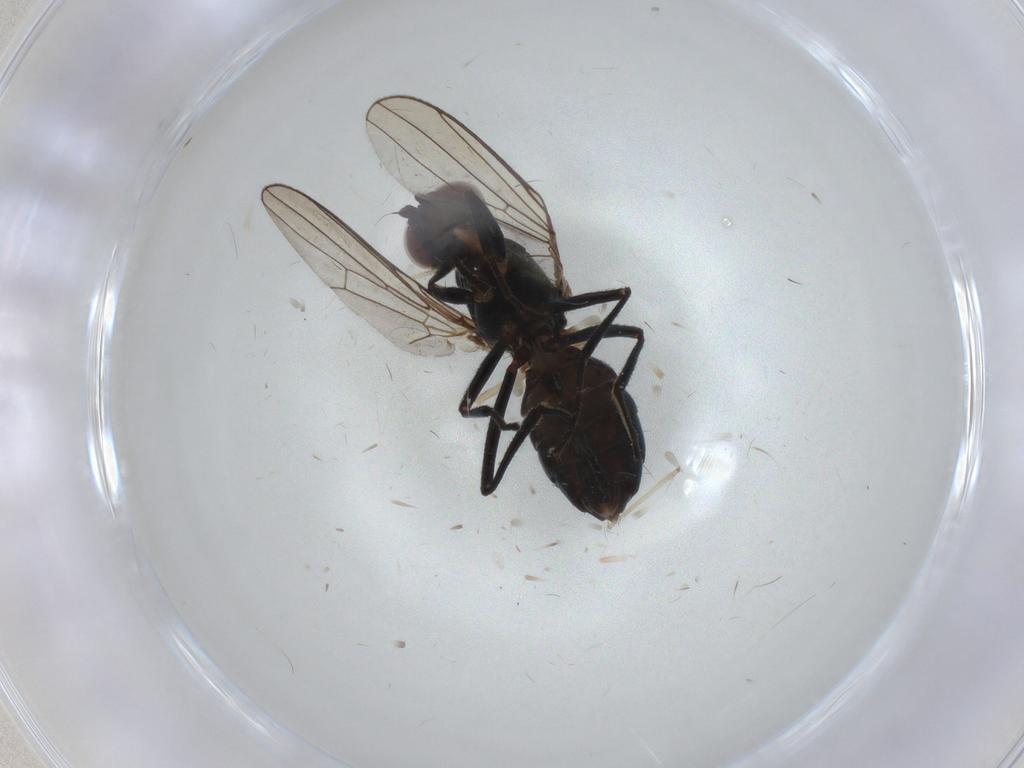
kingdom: Animalia
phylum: Arthropoda
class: Insecta
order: Diptera
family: Sepsidae
